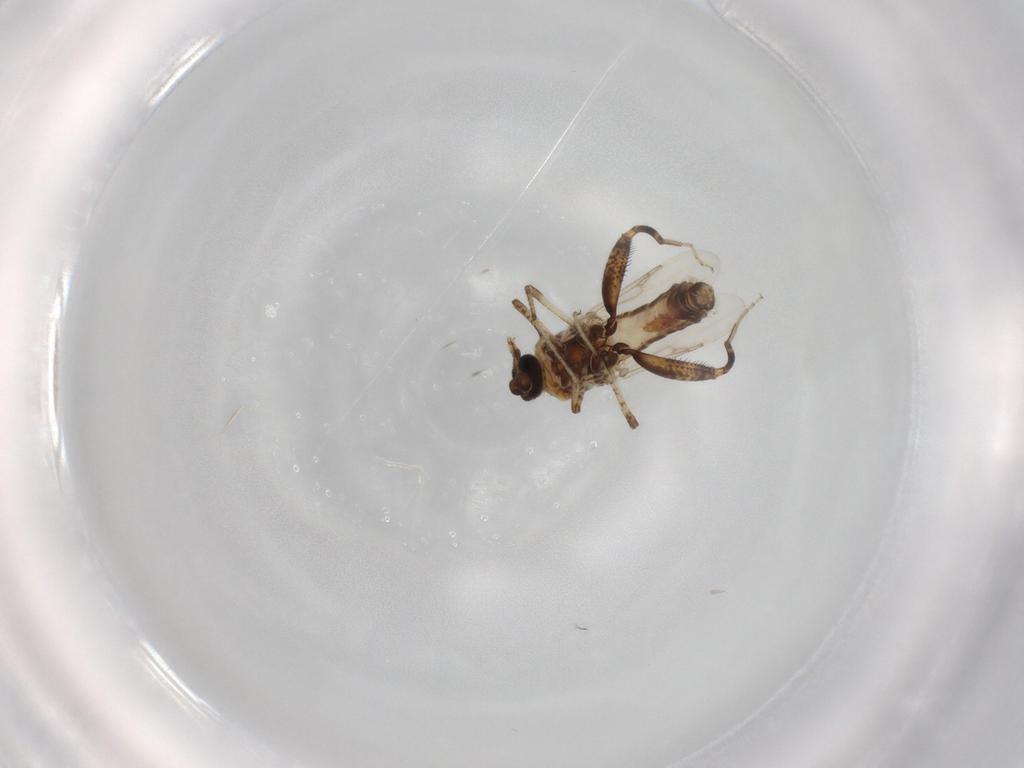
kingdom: Animalia
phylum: Arthropoda
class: Insecta
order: Diptera
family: Ceratopogonidae
